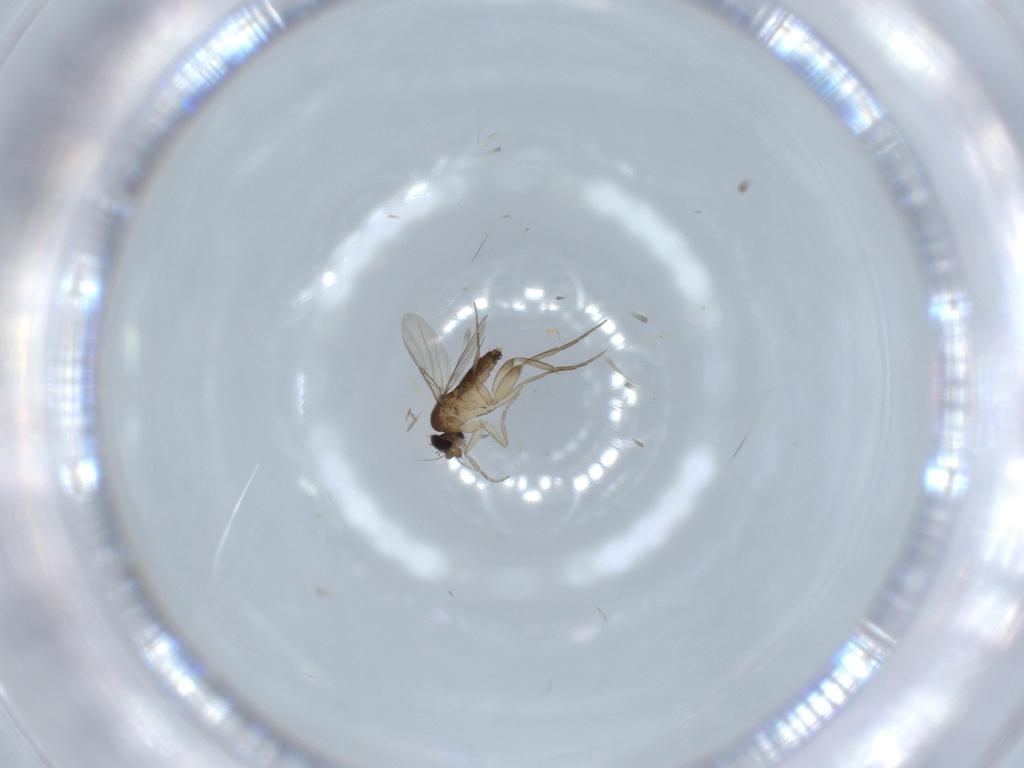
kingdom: Animalia
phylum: Arthropoda
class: Insecta
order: Diptera
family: Phoridae
